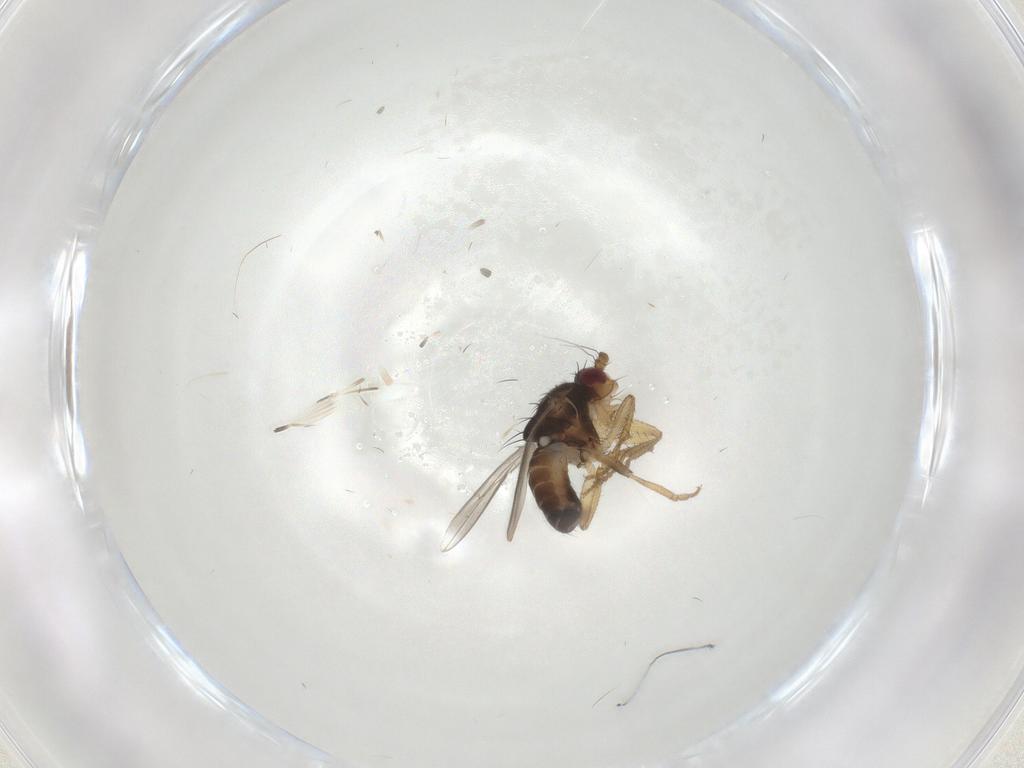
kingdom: Animalia
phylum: Arthropoda
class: Insecta
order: Diptera
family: Sphaeroceridae
